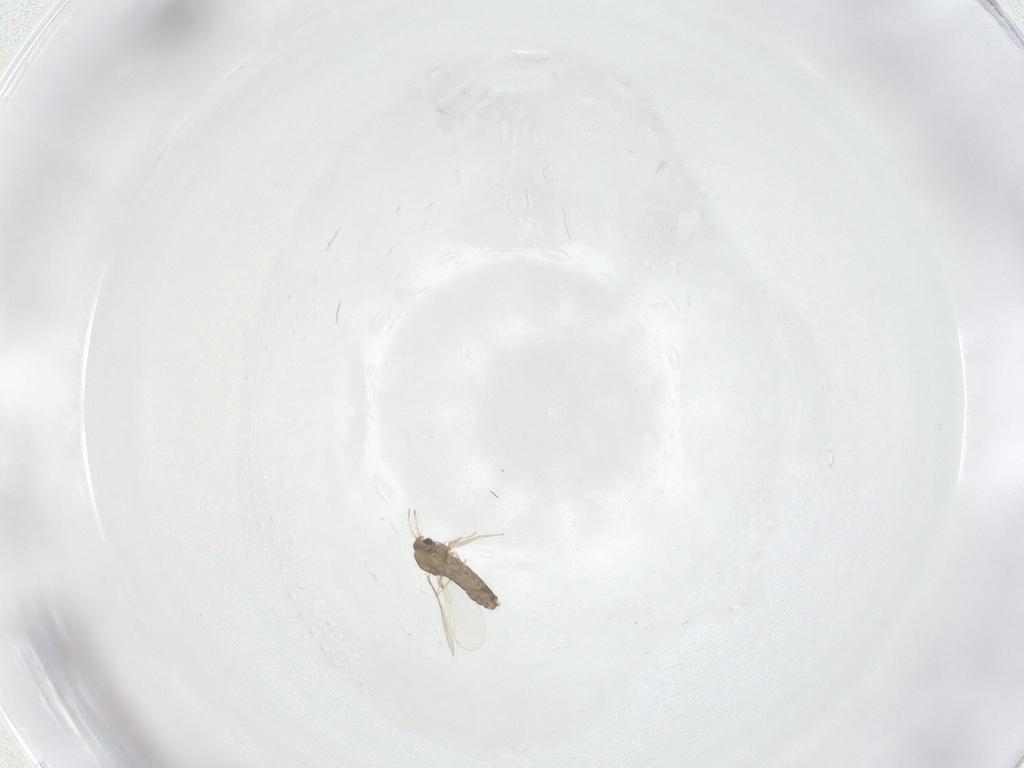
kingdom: Animalia
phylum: Arthropoda
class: Insecta
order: Diptera
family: Chironomidae
